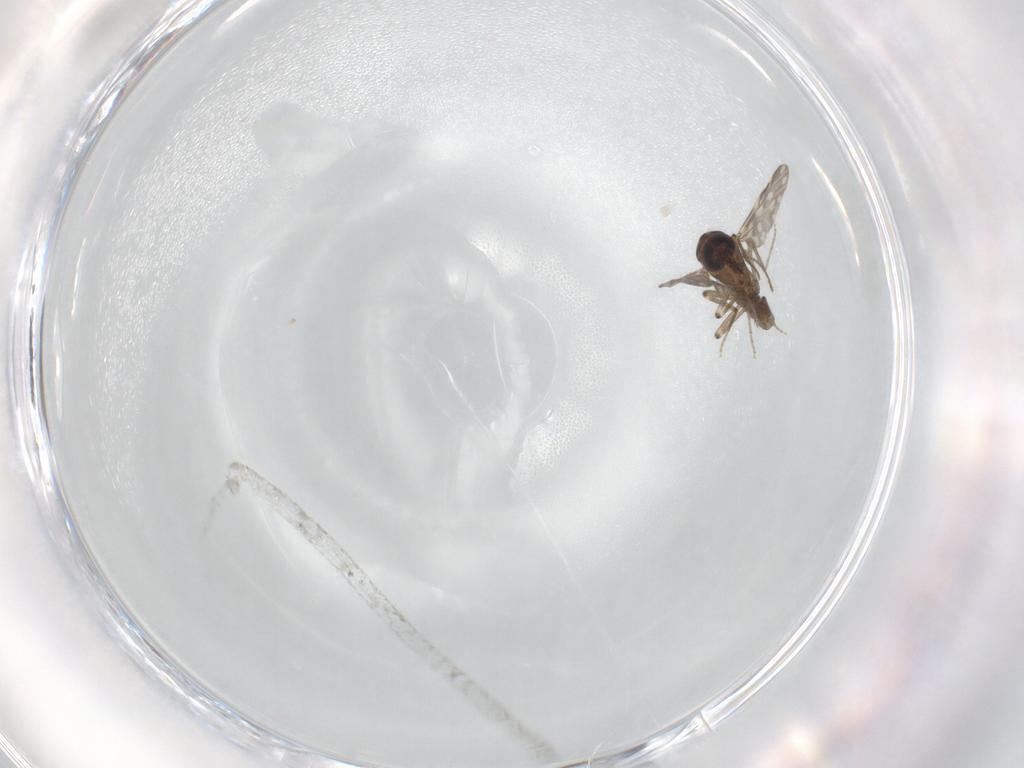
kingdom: Animalia
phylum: Arthropoda
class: Insecta
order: Diptera
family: Ceratopogonidae
